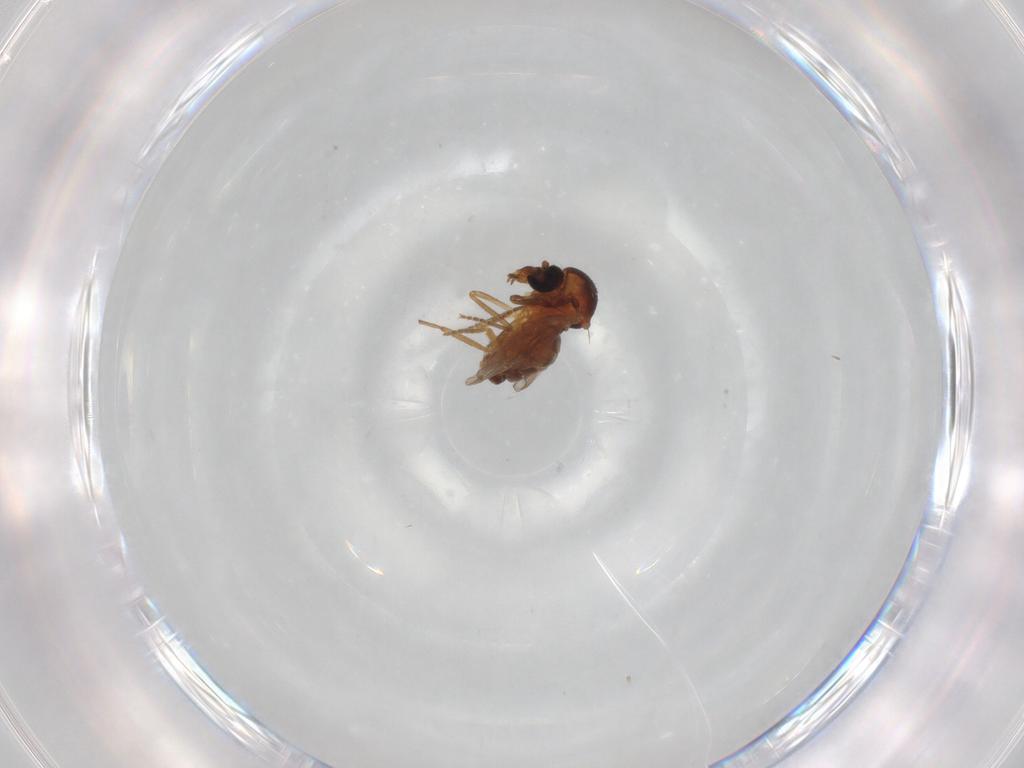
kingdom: Animalia
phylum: Arthropoda
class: Insecta
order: Diptera
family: Ceratopogonidae
